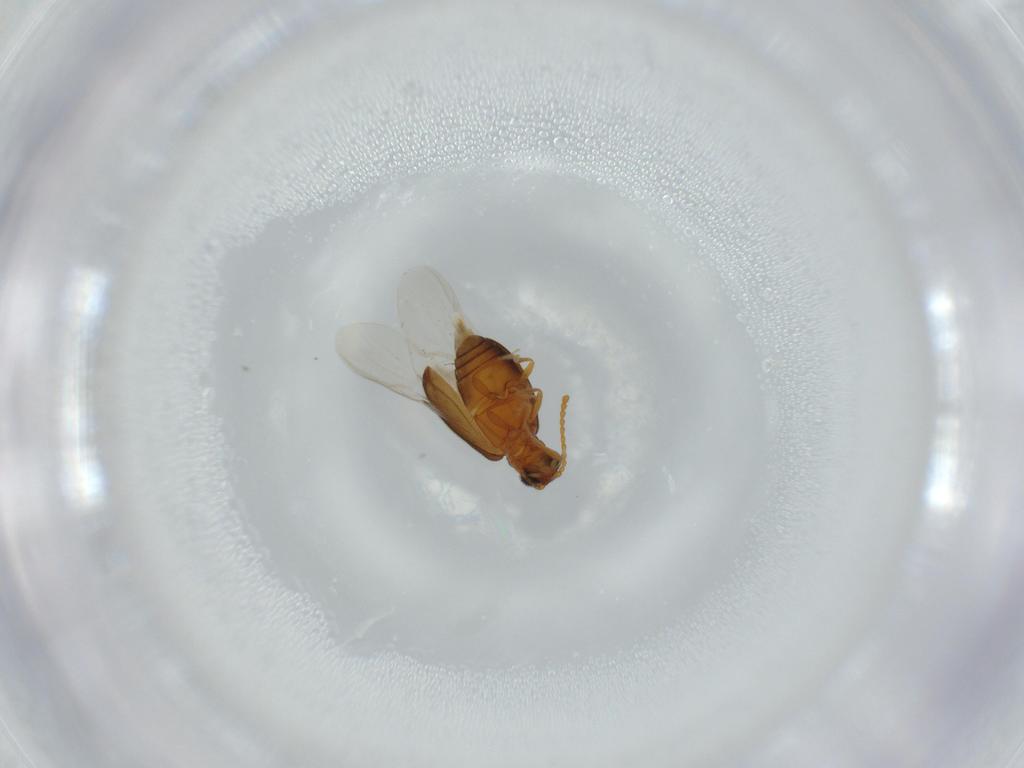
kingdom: Animalia
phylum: Arthropoda
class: Insecta
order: Coleoptera
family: Aderidae
